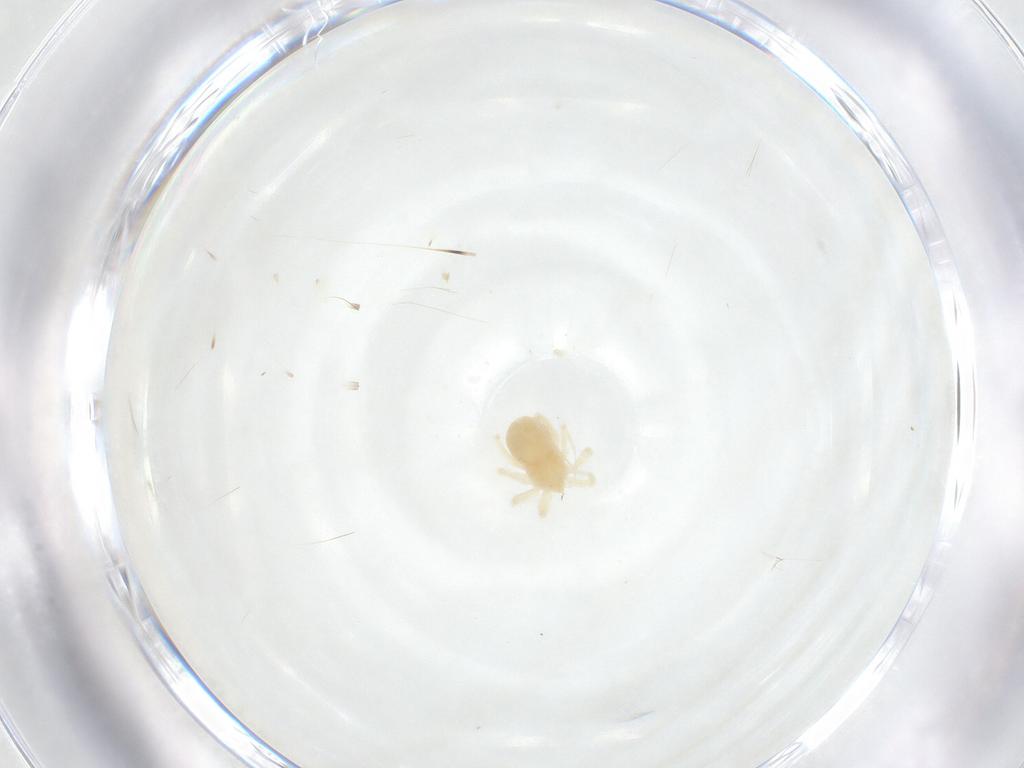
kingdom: Animalia
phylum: Arthropoda
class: Arachnida
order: Trombidiformes
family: Anystidae
